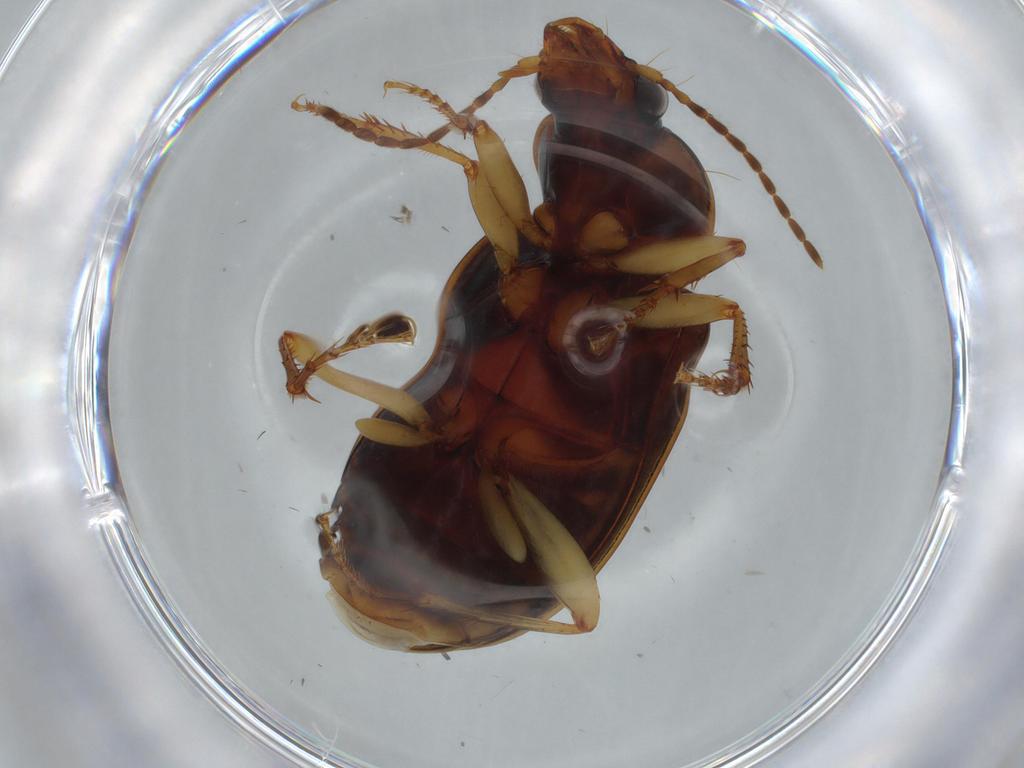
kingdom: Animalia
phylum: Arthropoda
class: Insecta
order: Coleoptera
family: Carabidae
